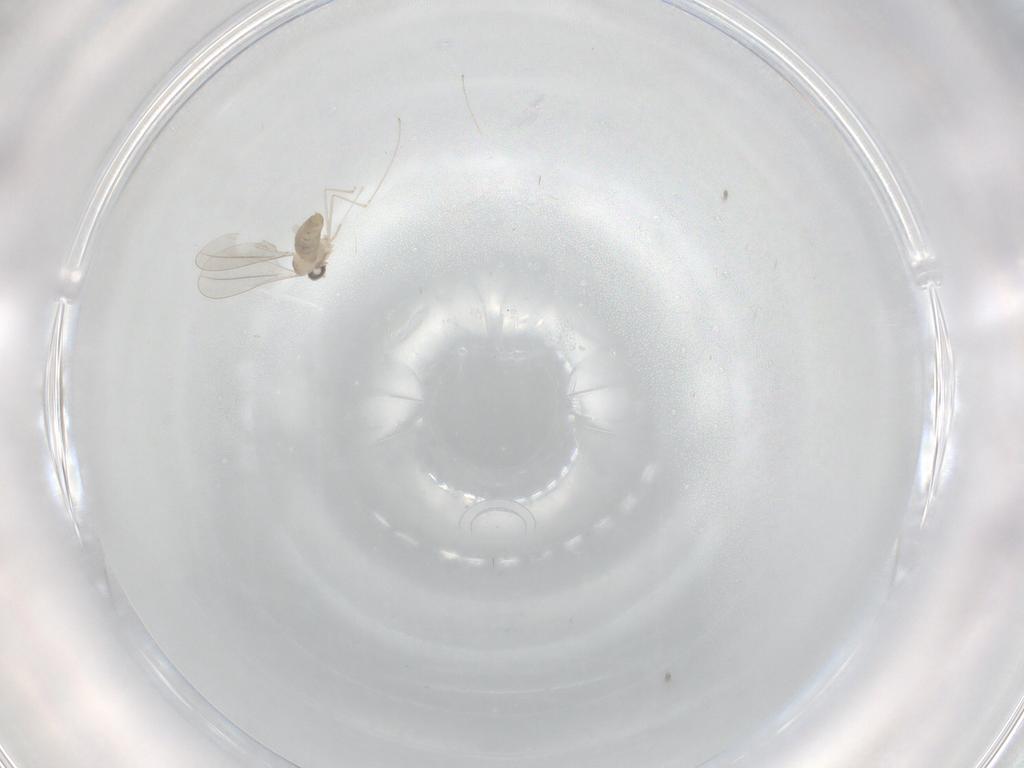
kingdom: Animalia
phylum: Arthropoda
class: Insecta
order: Diptera
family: Cecidomyiidae
